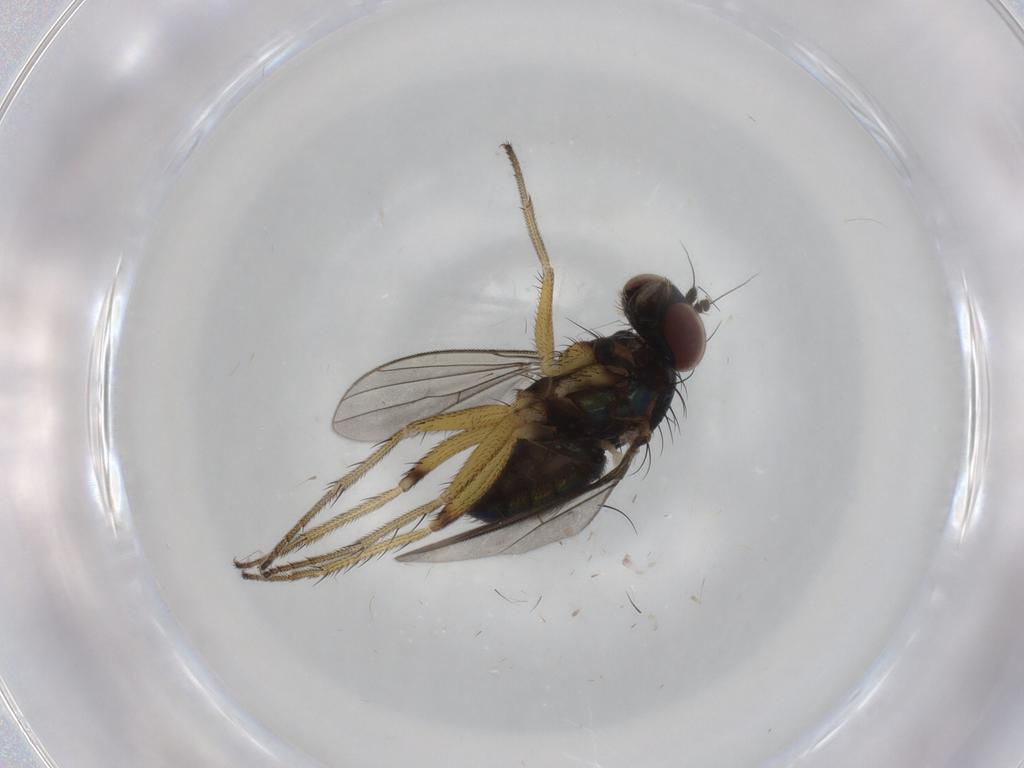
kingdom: Animalia
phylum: Arthropoda
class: Insecta
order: Diptera
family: Dolichopodidae
